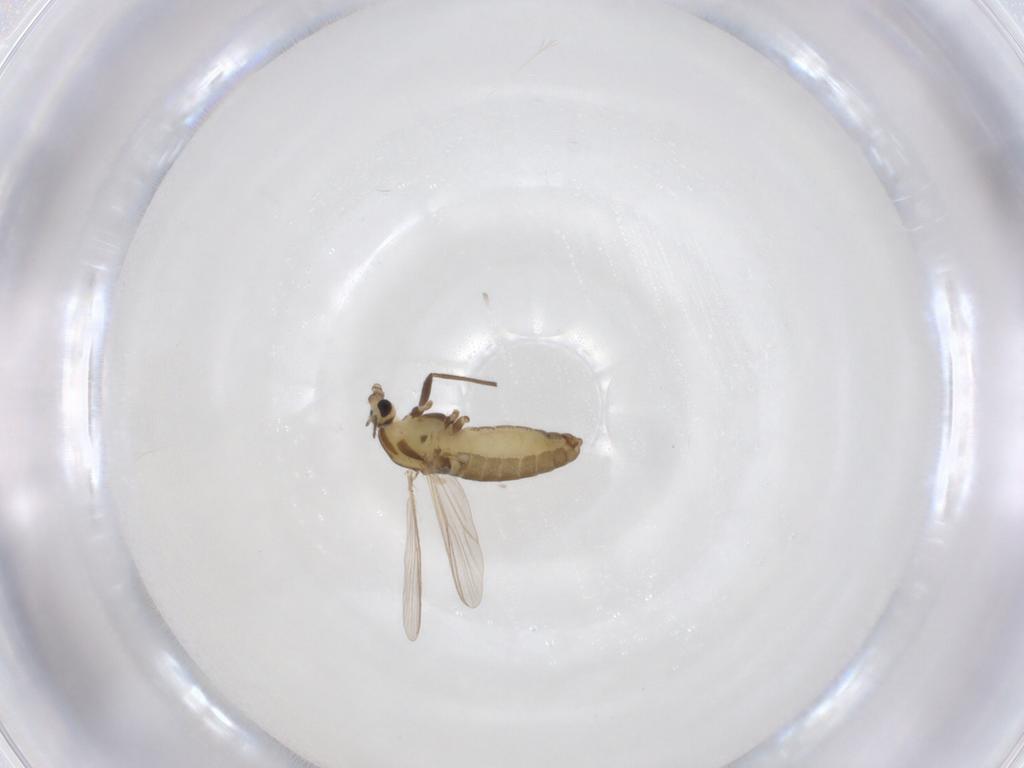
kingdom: Animalia
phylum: Arthropoda
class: Insecta
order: Diptera
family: Chironomidae
